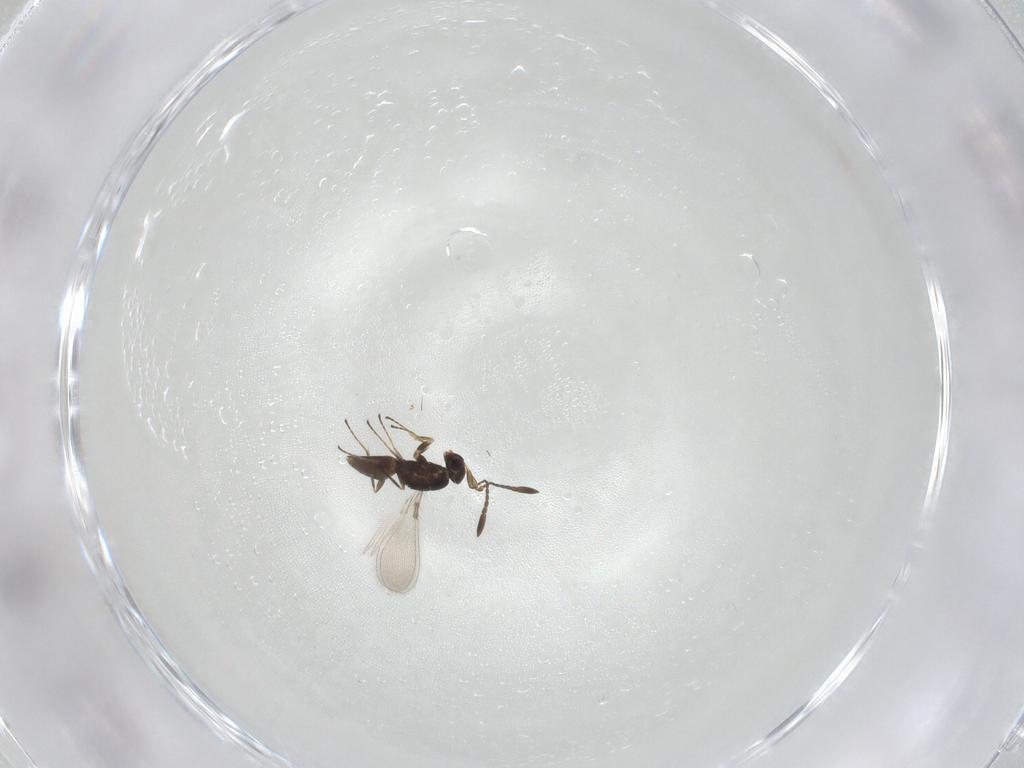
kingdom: Animalia
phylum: Arthropoda
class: Insecta
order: Hymenoptera
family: Mymaridae
